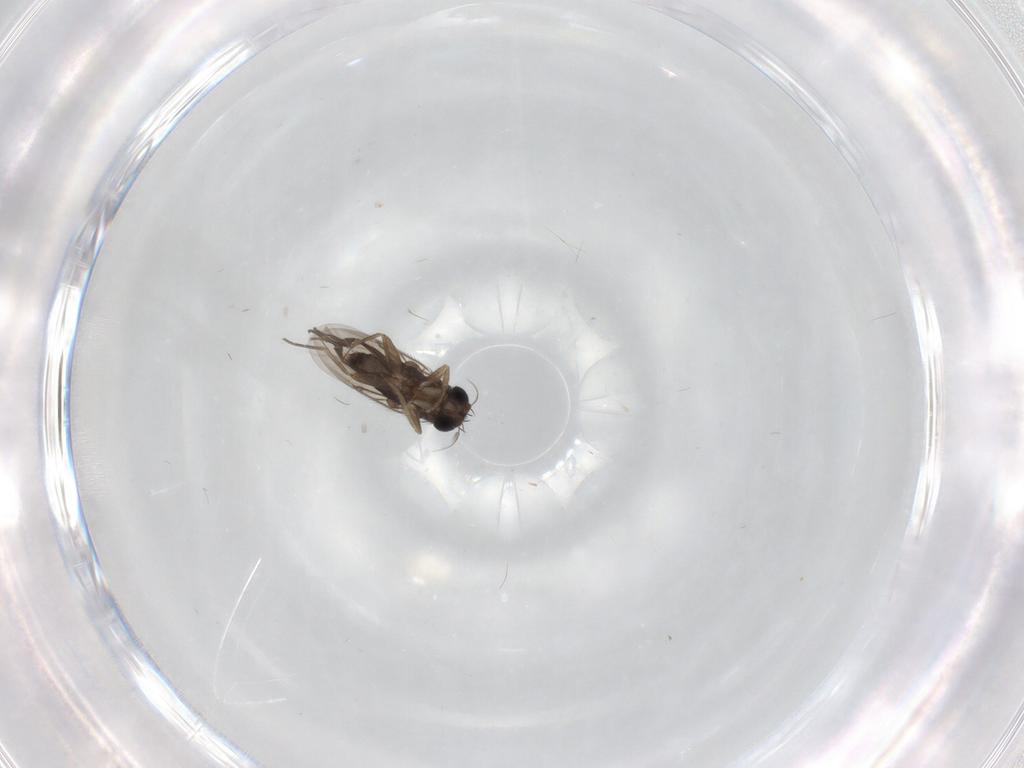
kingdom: Animalia
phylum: Arthropoda
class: Insecta
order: Diptera
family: Phoridae
